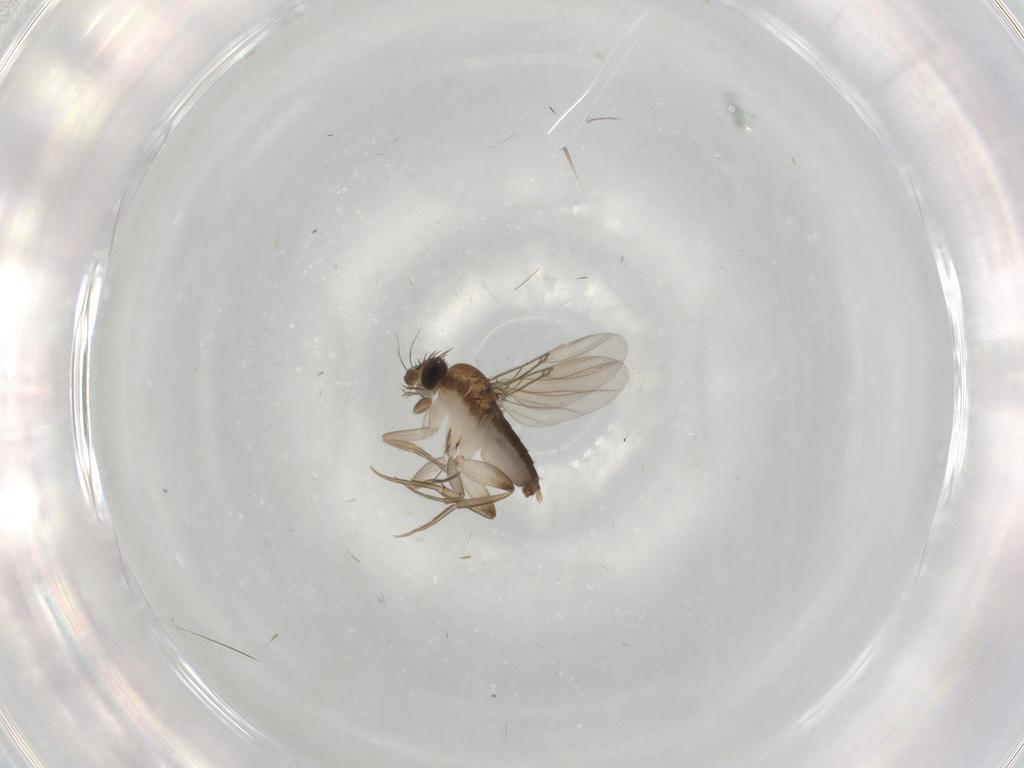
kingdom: Animalia
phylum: Arthropoda
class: Insecta
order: Diptera
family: Phoridae
